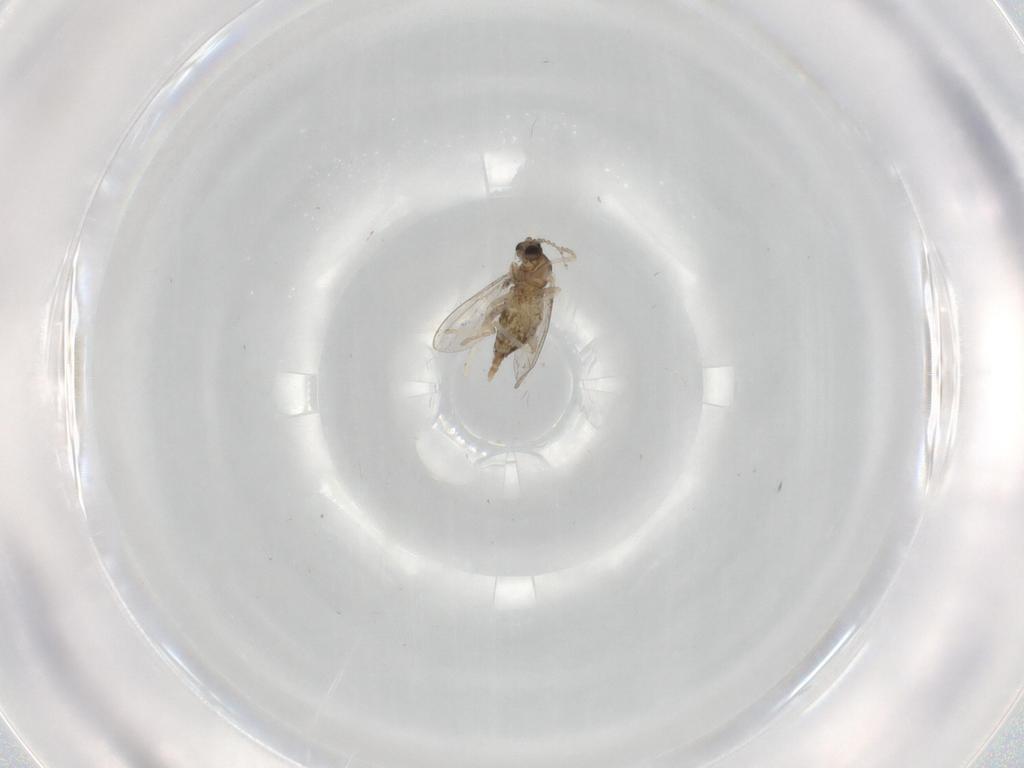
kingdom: Animalia
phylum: Arthropoda
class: Insecta
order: Diptera
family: Cecidomyiidae
